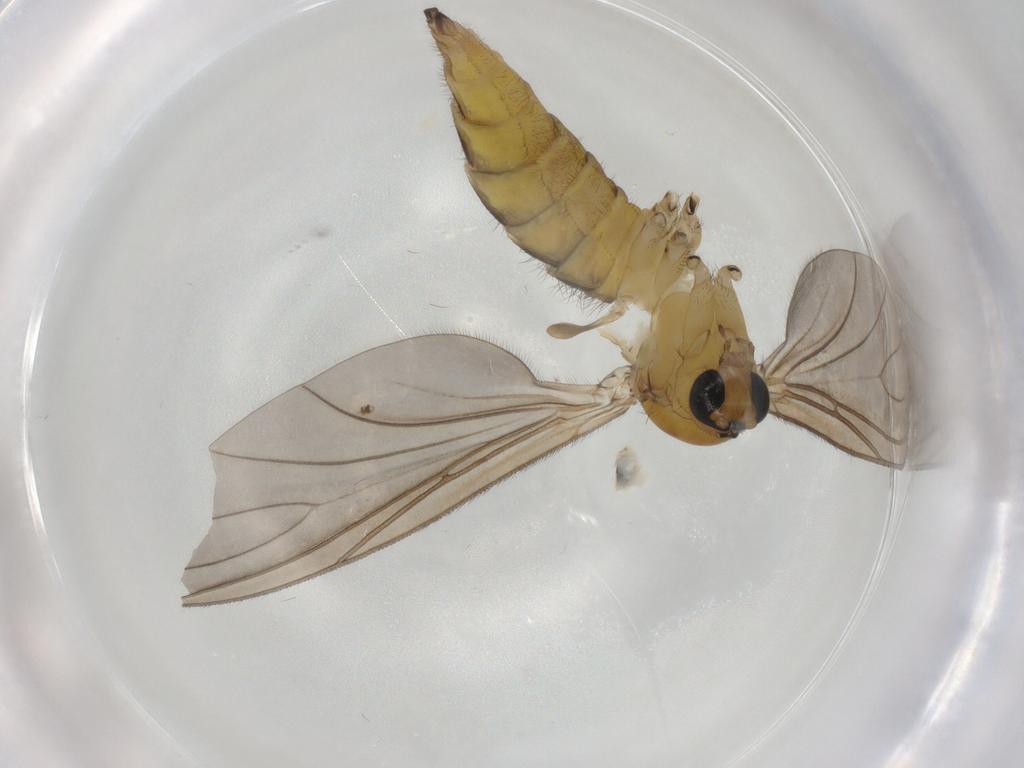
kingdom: Animalia
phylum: Arthropoda
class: Insecta
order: Diptera
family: Sciaridae
